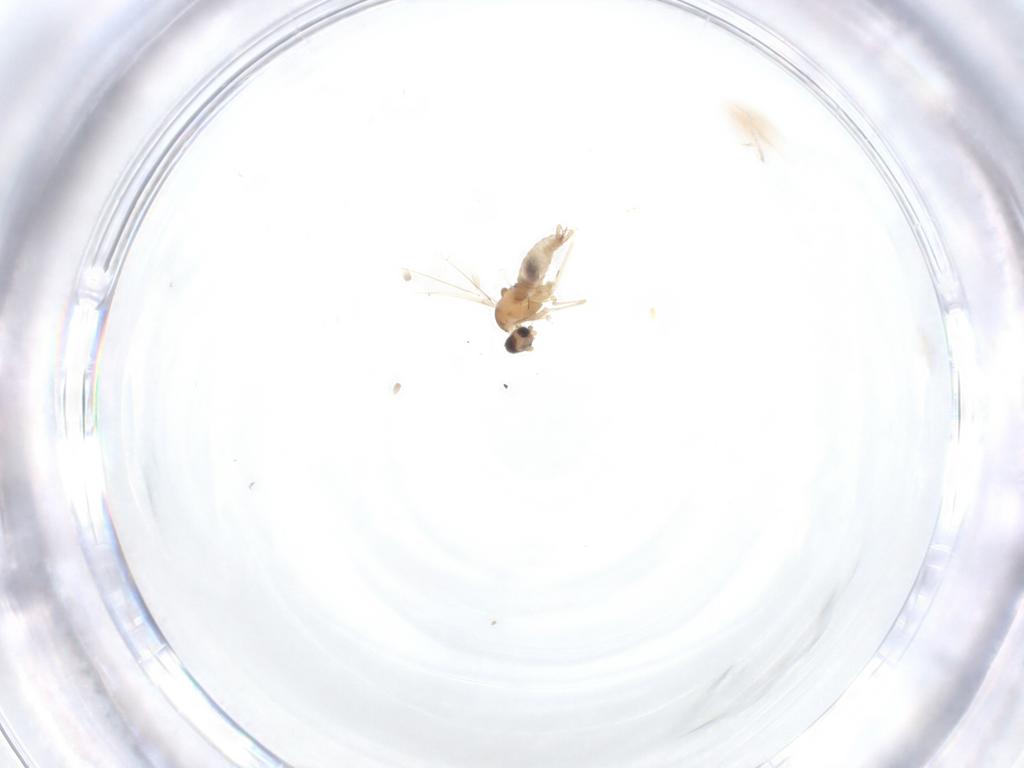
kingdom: Animalia
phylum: Arthropoda
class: Insecta
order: Diptera
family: Cecidomyiidae
